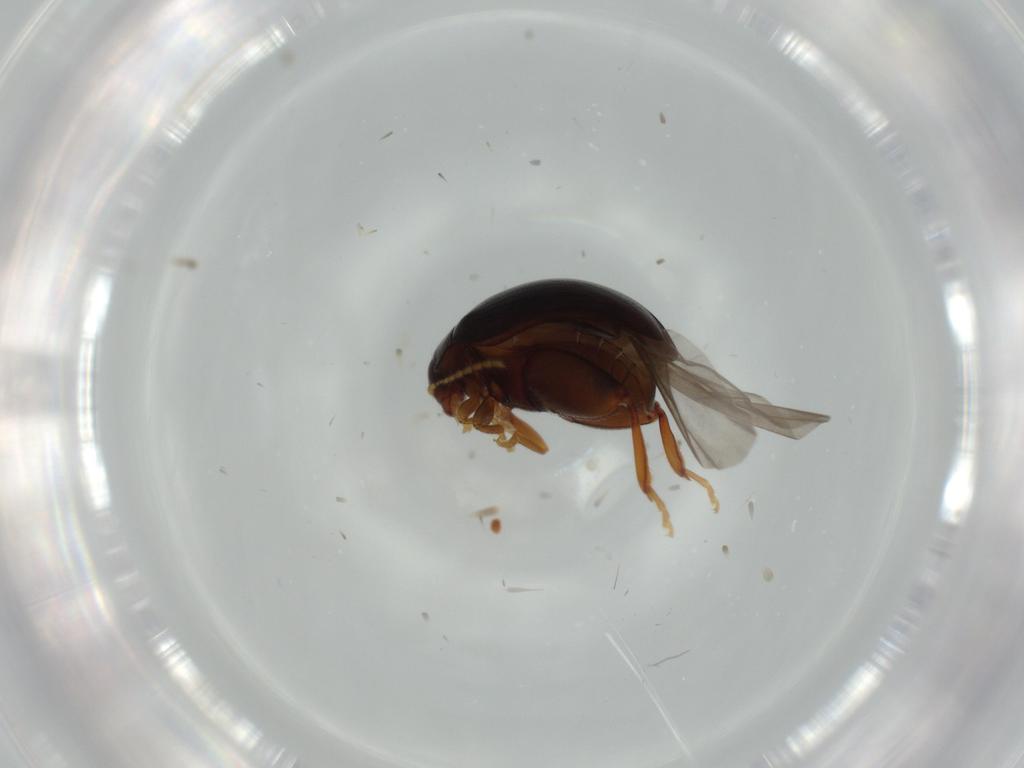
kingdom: Animalia
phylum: Arthropoda
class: Insecta
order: Coleoptera
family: Chrysomelidae
